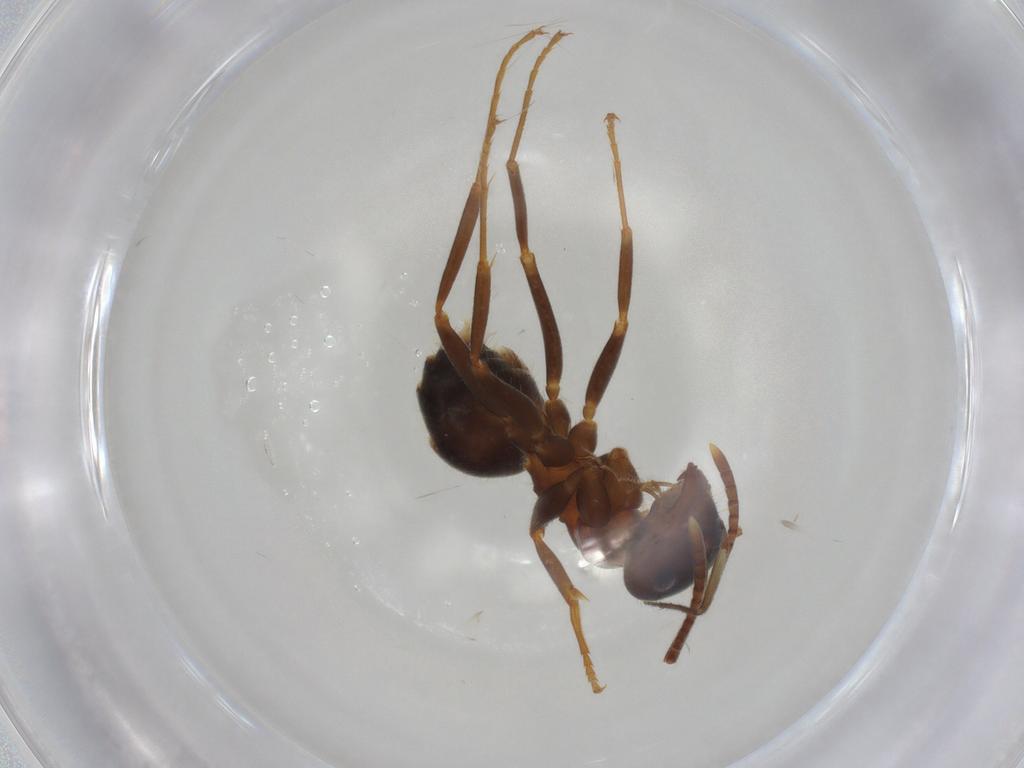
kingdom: Animalia
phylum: Arthropoda
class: Insecta
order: Hymenoptera
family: Formicidae
